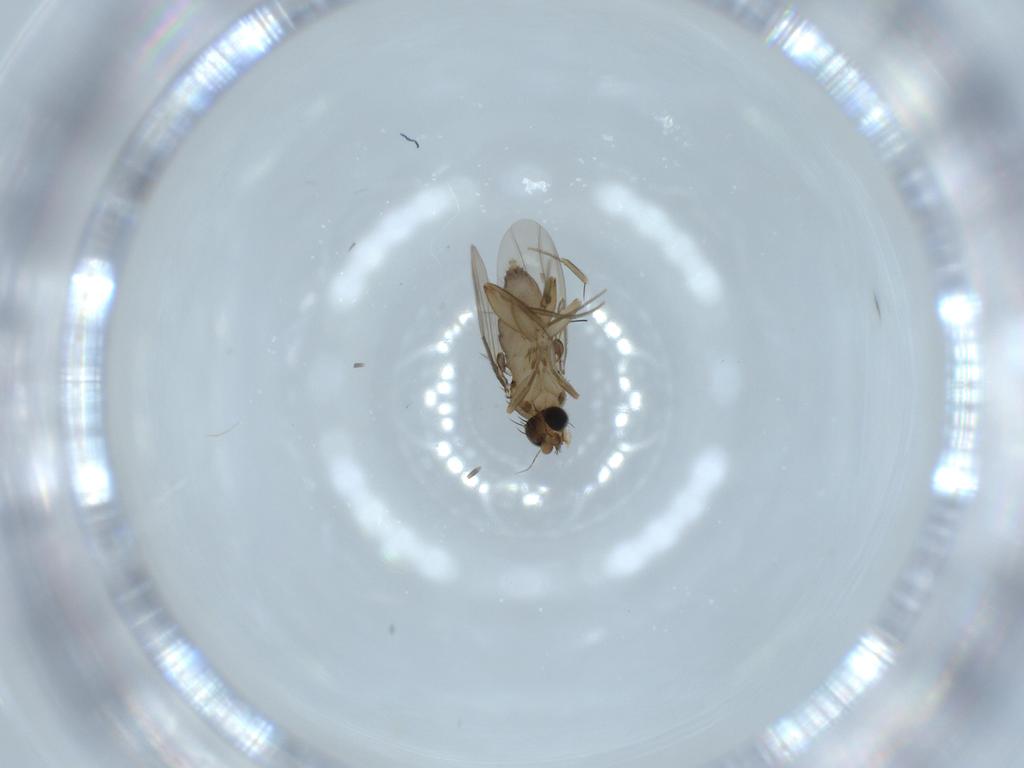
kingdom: Animalia
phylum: Arthropoda
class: Insecta
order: Diptera
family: Phoridae
